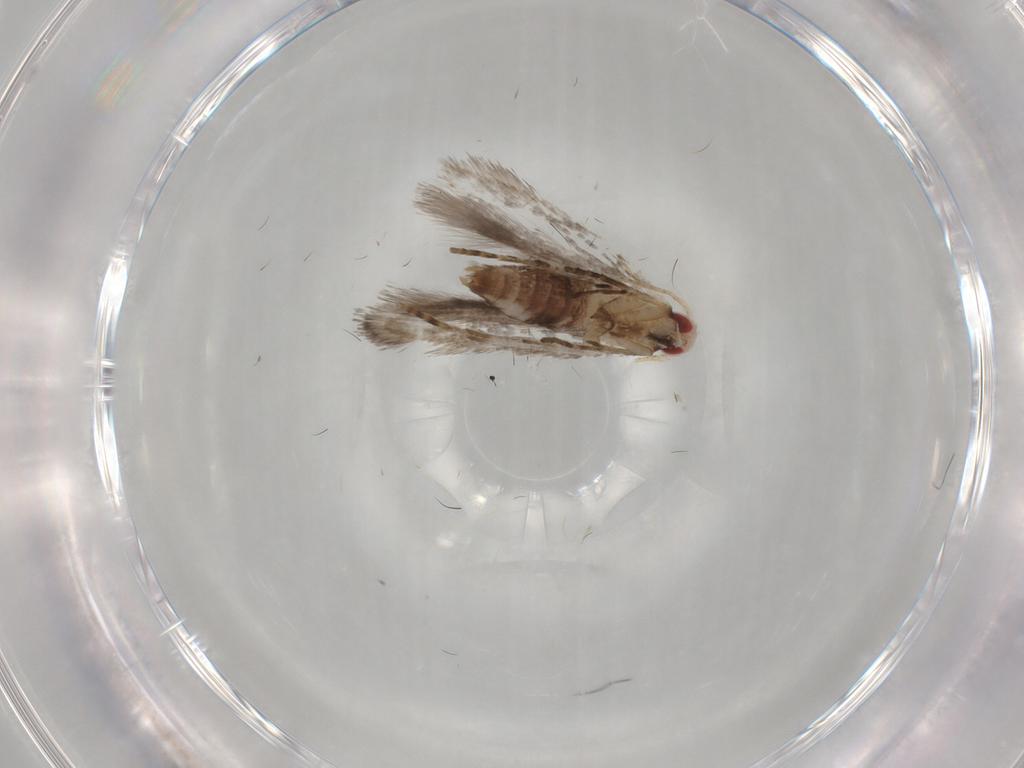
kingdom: Animalia
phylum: Arthropoda
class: Insecta
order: Lepidoptera
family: Gelechiidae
